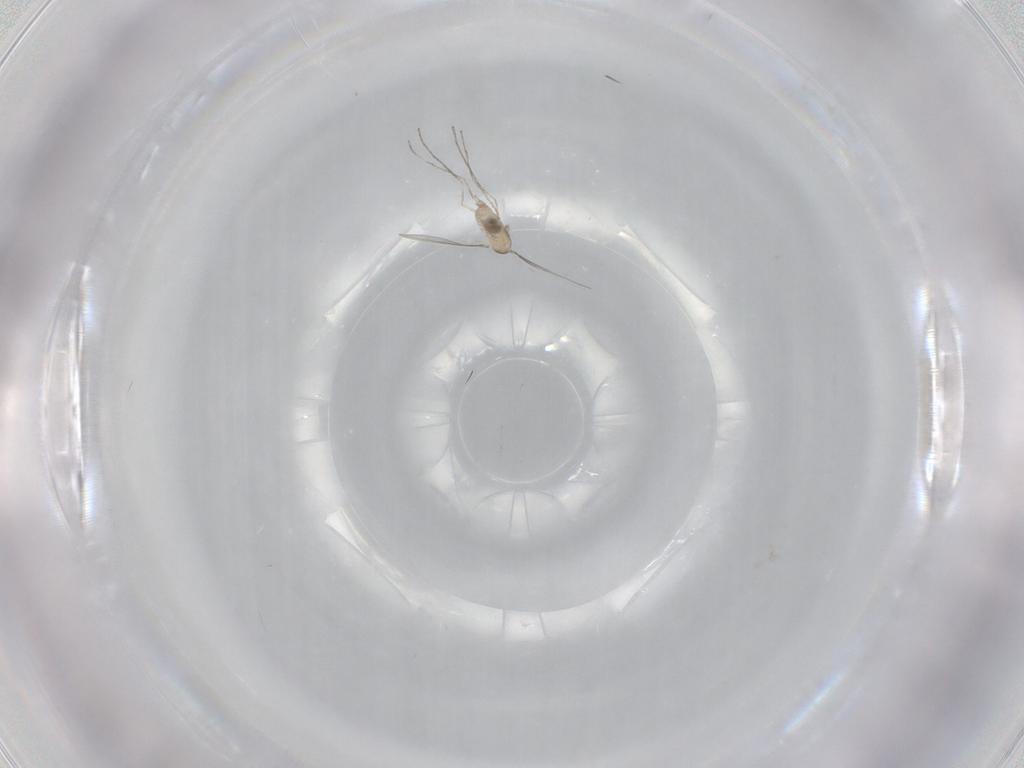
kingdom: Animalia
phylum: Arthropoda
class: Insecta
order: Diptera
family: Cecidomyiidae
